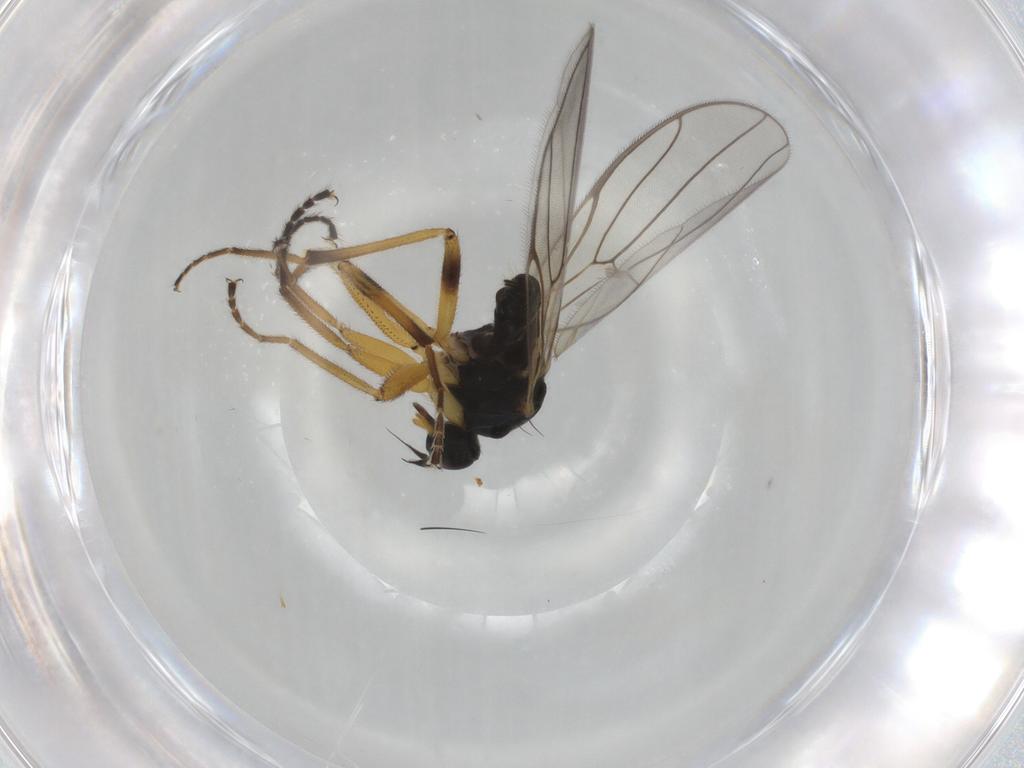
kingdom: Animalia
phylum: Arthropoda
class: Insecta
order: Diptera
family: Hybotidae
